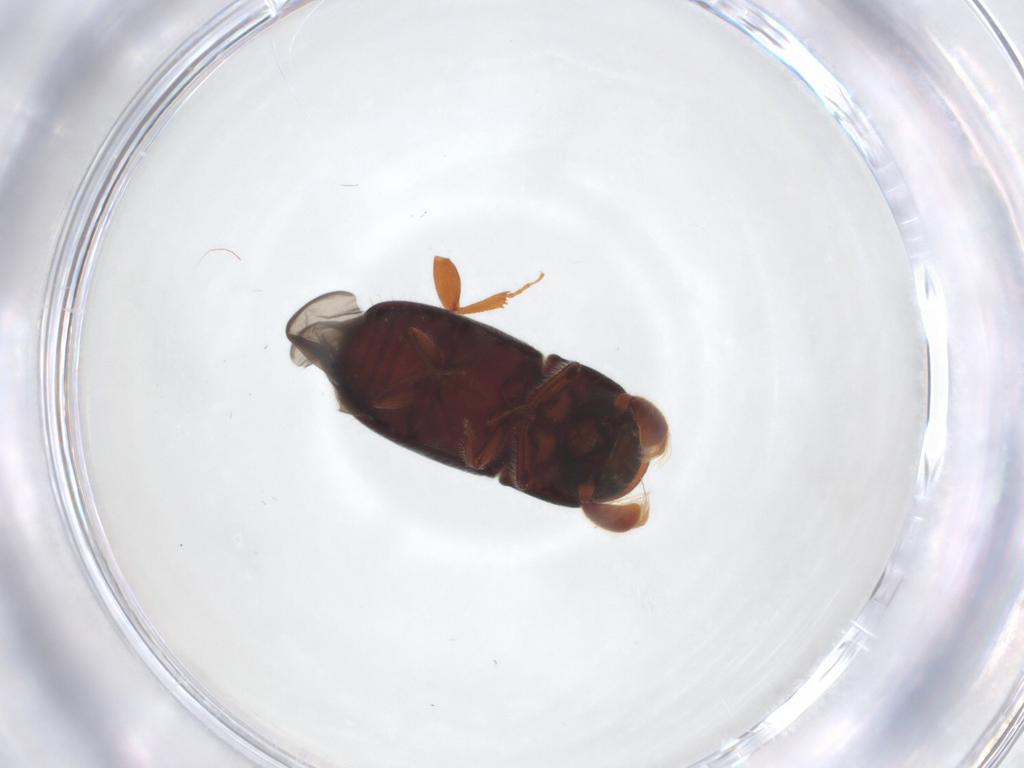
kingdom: Animalia
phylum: Arthropoda
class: Insecta
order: Coleoptera
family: Curculionidae
